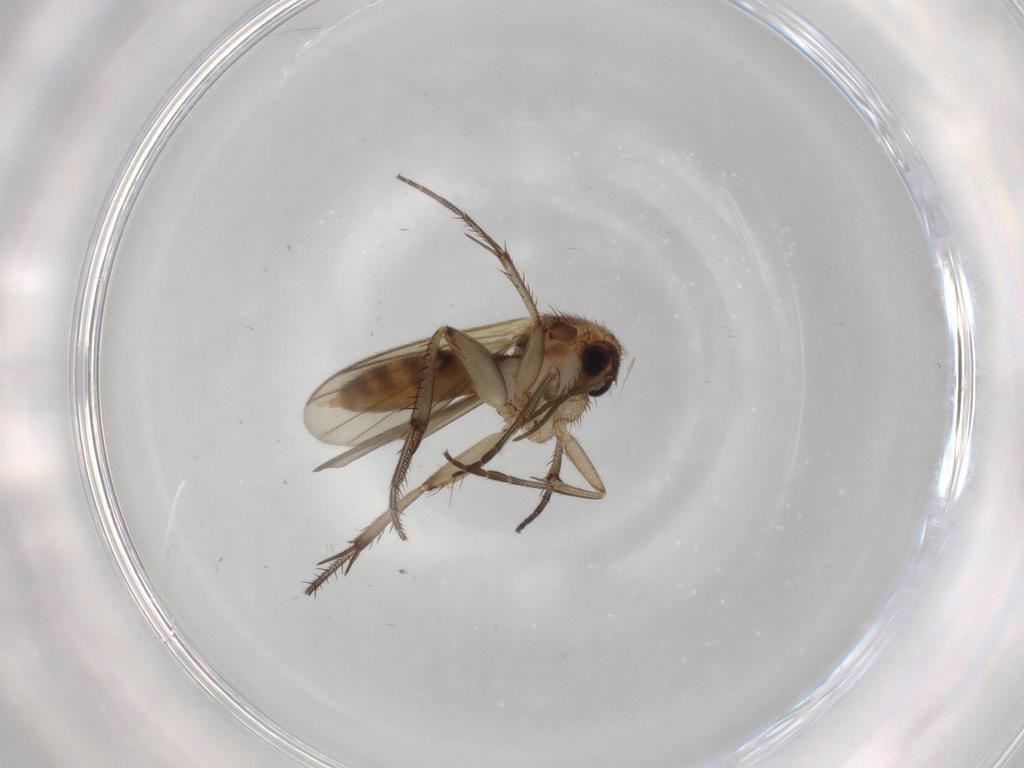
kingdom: Animalia
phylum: Arthropoda
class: Insecta
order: Diptera
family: Mycetophilidae
